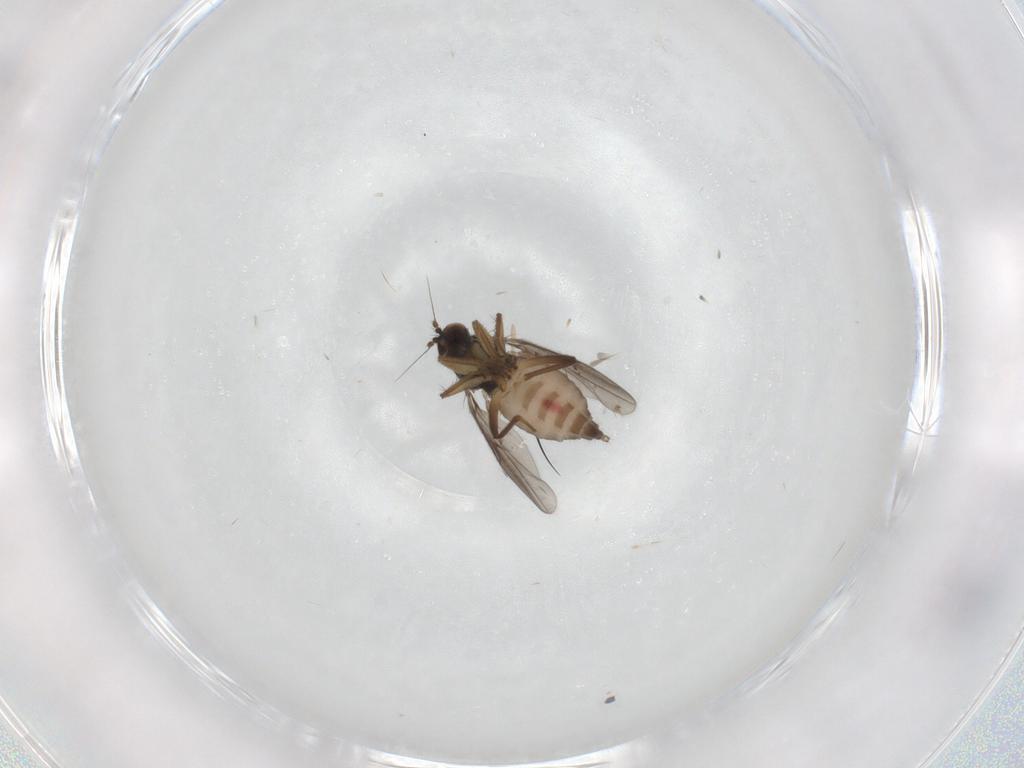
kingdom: Animalia
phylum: Arthropoda
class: Insecta
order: Diptera
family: Hybotidae
